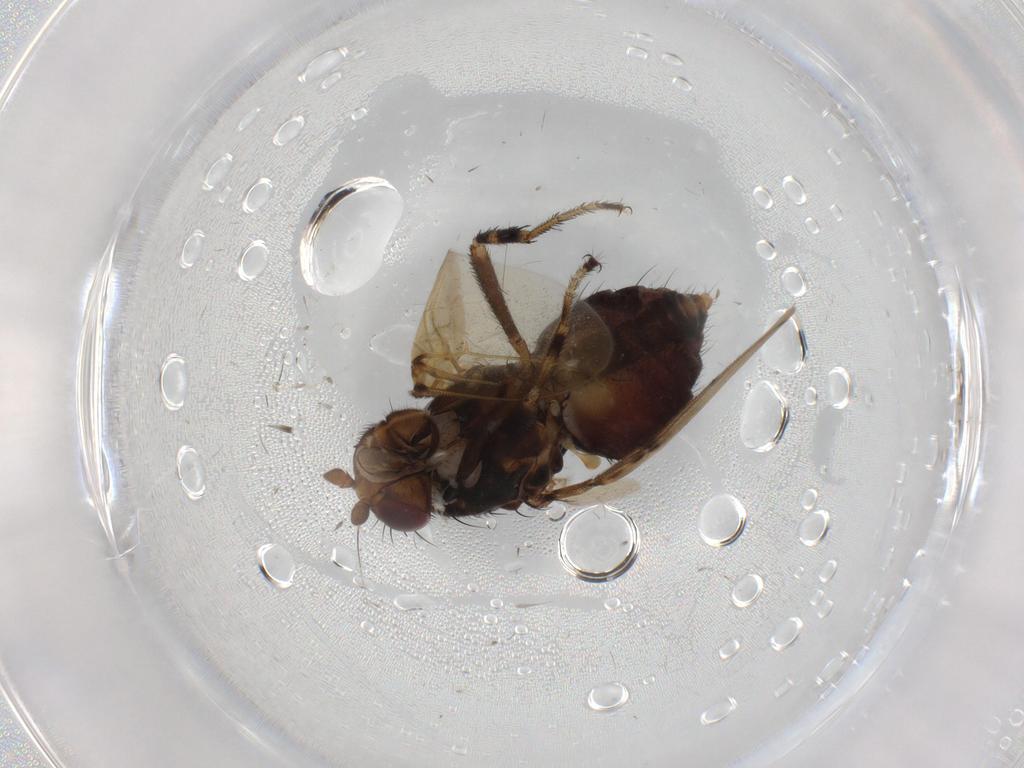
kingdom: Animalia
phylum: Arthropoda
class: Insecta
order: Diptera
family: Sphaeroceridae
